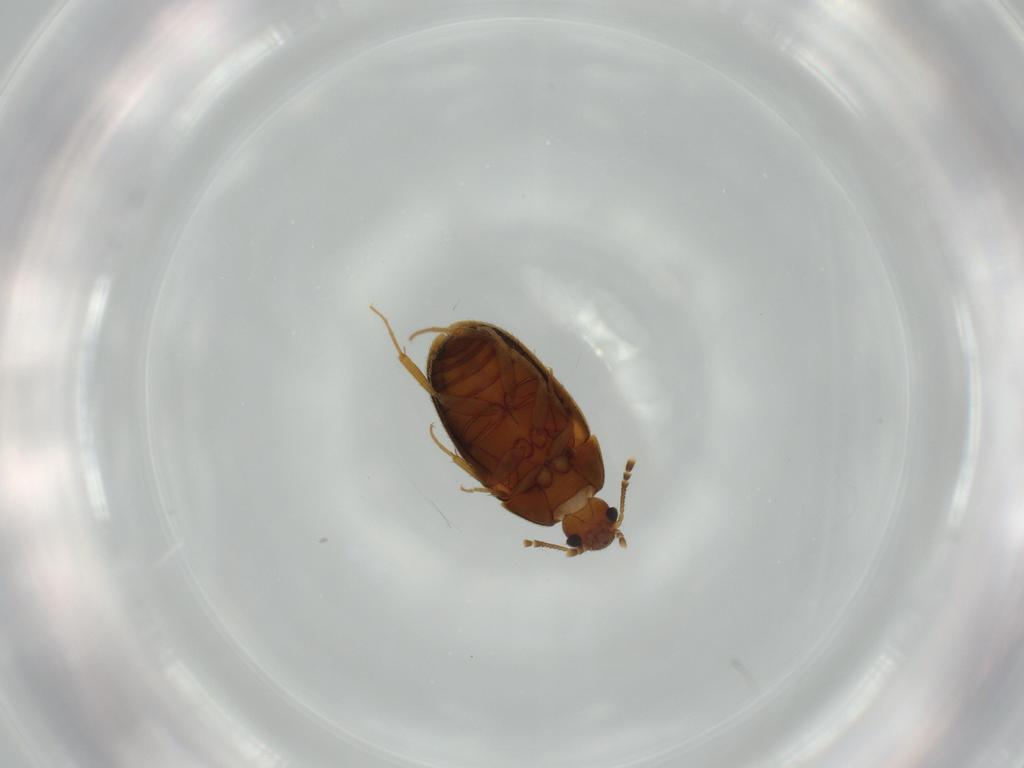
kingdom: Animalia
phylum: Arthropoda
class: Insecta
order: Coleoptera
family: Mycetophagidae
